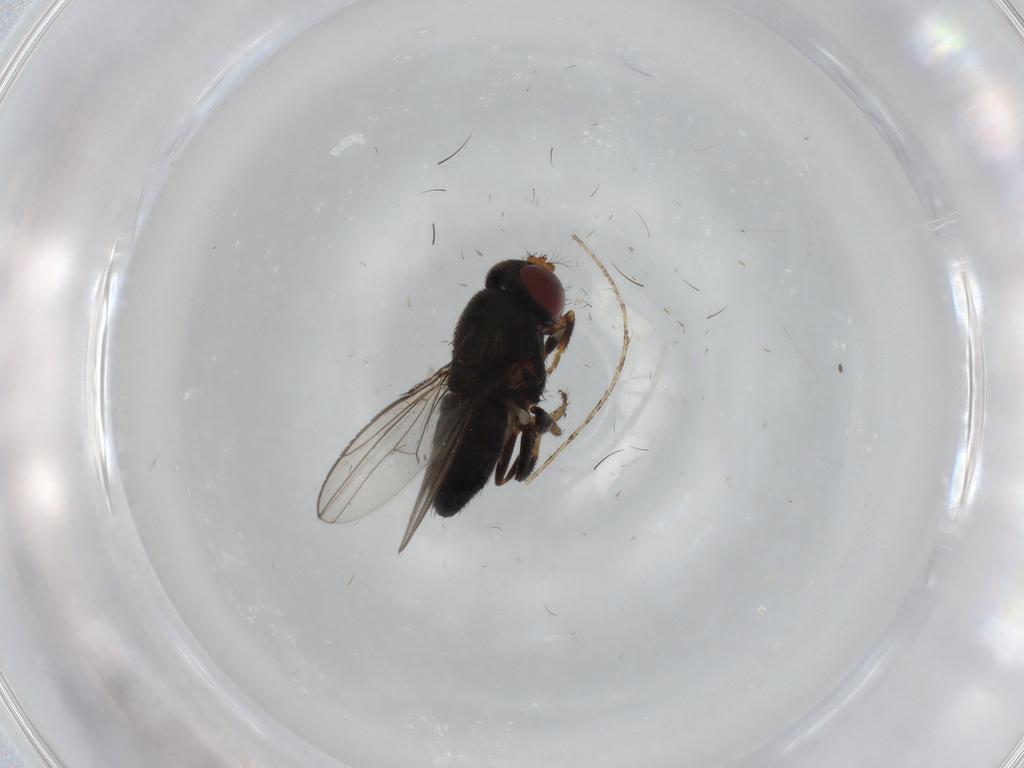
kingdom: Animalia
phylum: Arthropoda
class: Insecta
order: Diptera
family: Ephydridae
